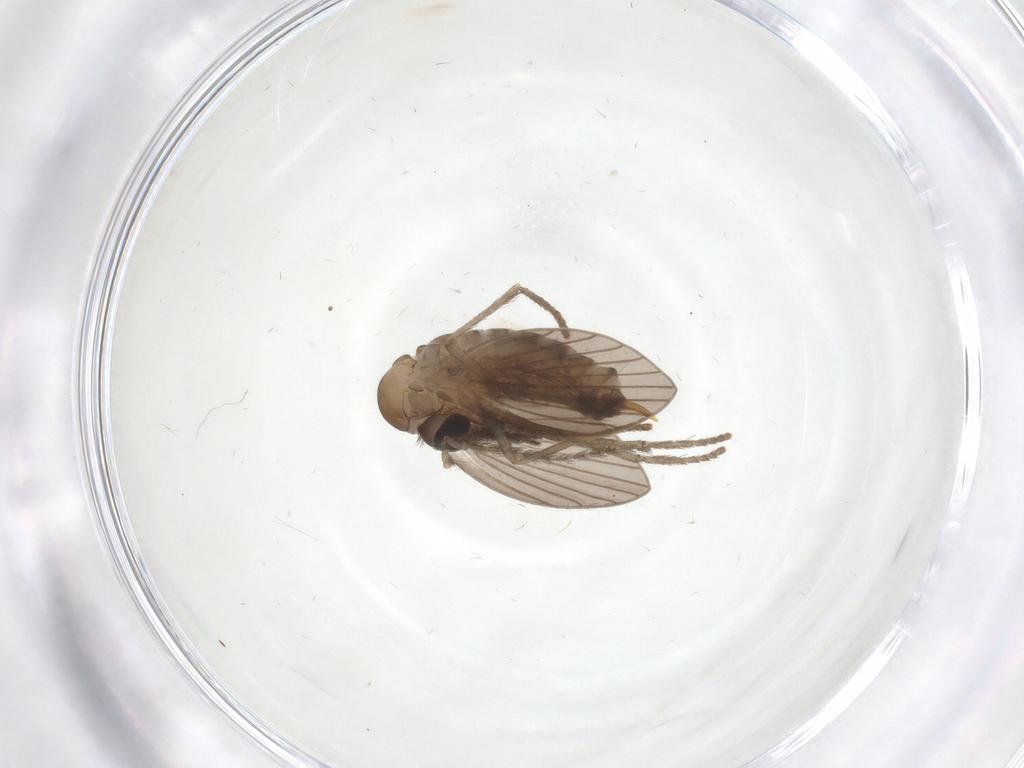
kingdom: Animalia
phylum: Arthropoda
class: Insecta
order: Diptera
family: Psychodidae
